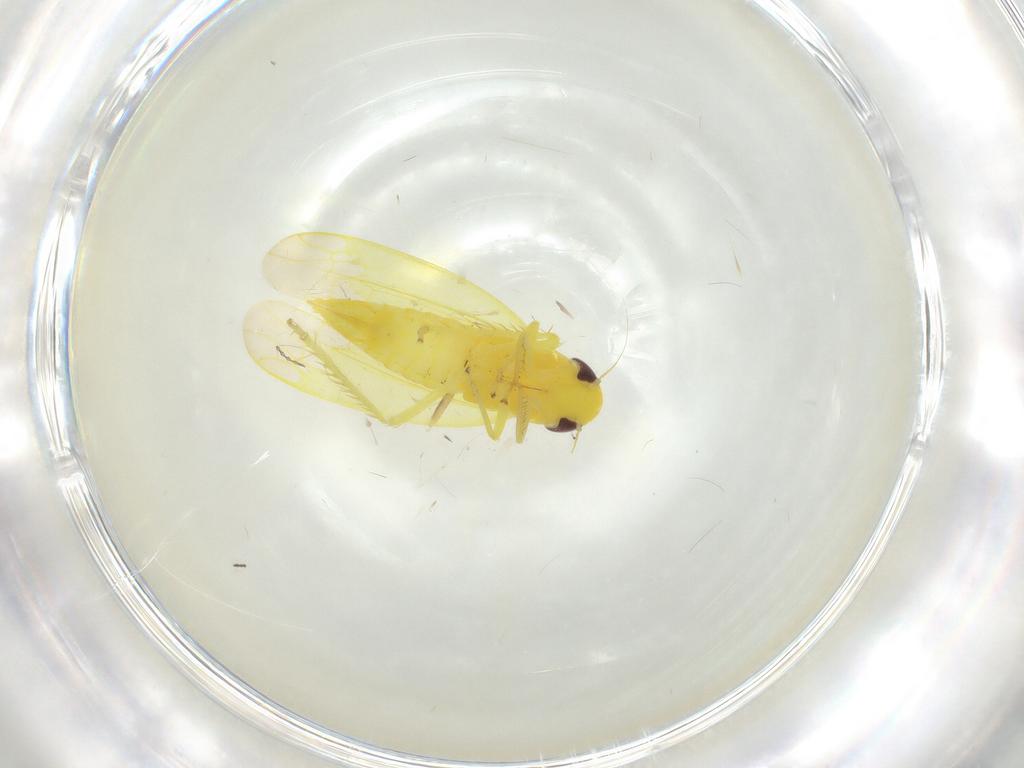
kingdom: Animalia
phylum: Arthropoda
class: Insecta
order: Hemiptera
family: Cicadellidae
